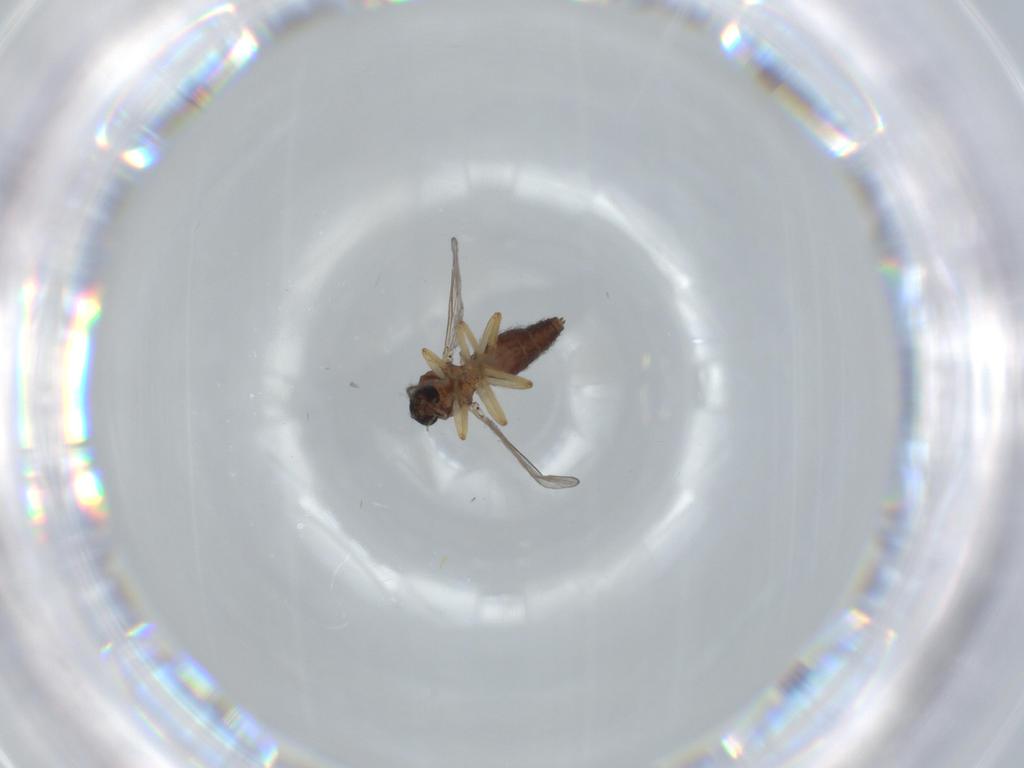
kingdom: Animalia
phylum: Arthropoda
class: Insecta
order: Diptera
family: Ceratopogonidae
